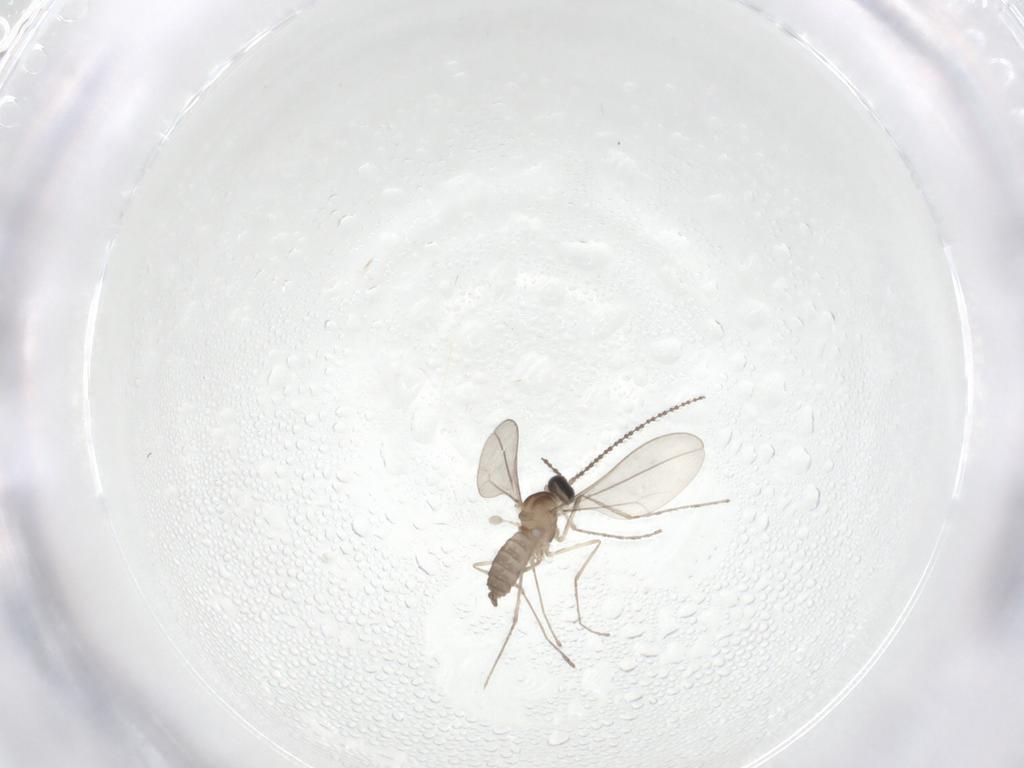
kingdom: Animalia
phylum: Arthropoda
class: Insecta
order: Diptera
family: Cecidomyiidae
